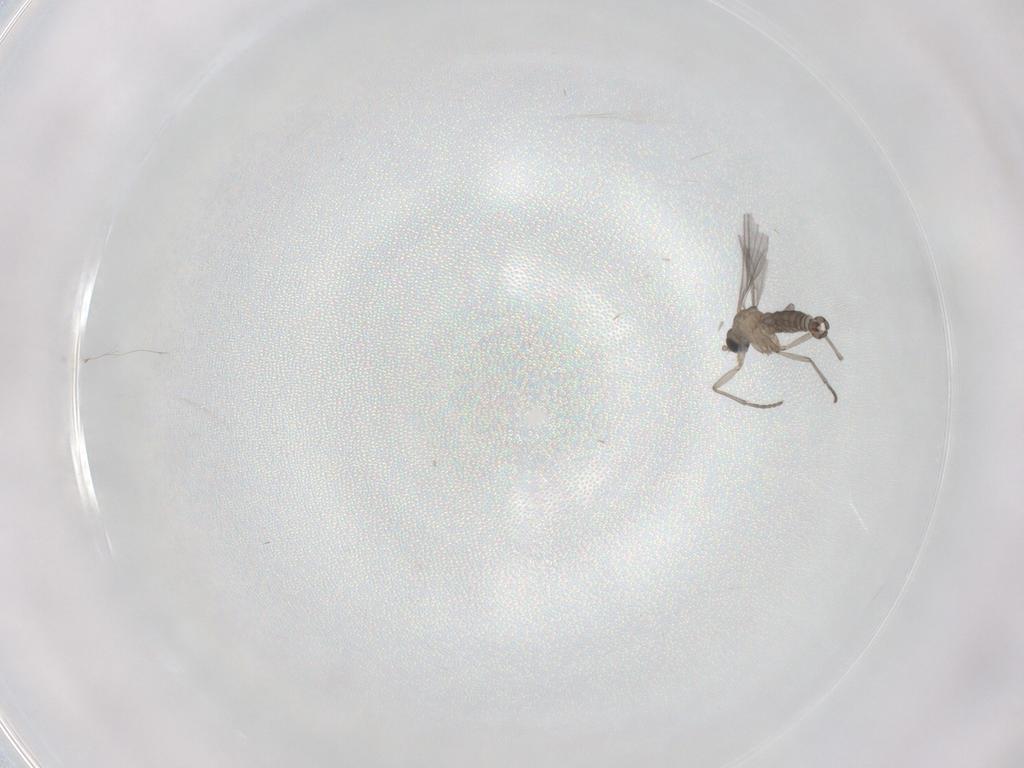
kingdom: Animalia
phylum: Arthropoda
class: Insecta
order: Diptera
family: Sciaridae
